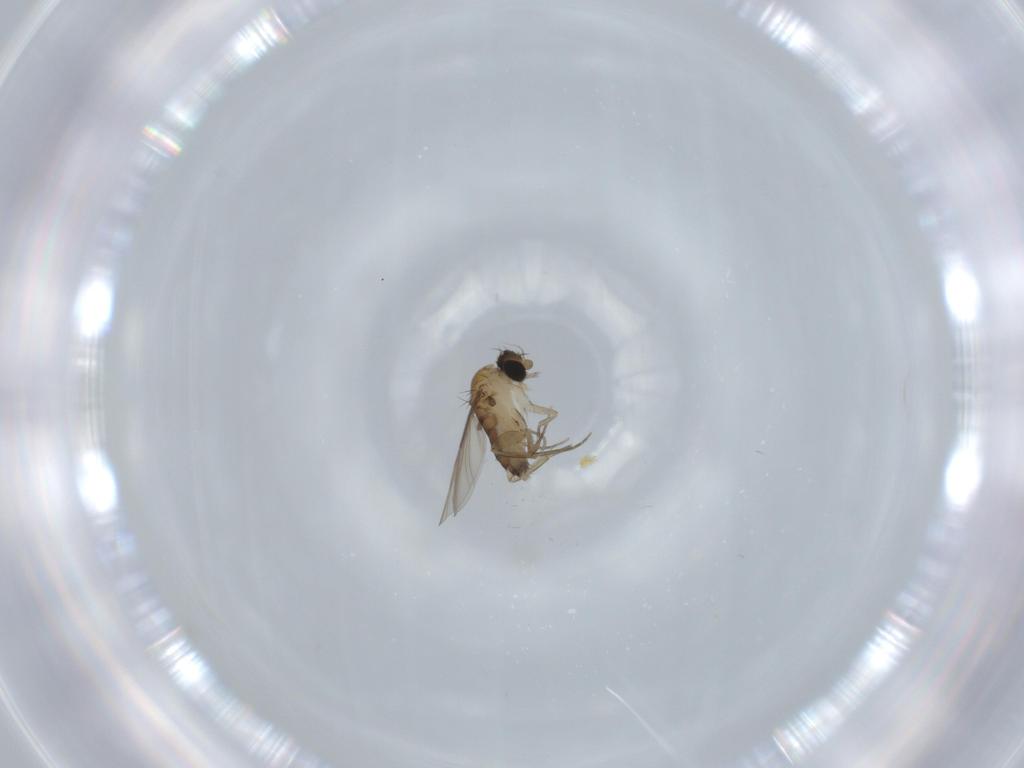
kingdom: Animalia
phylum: Arthropoda
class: Insecta
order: Diptera
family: Phoridae
